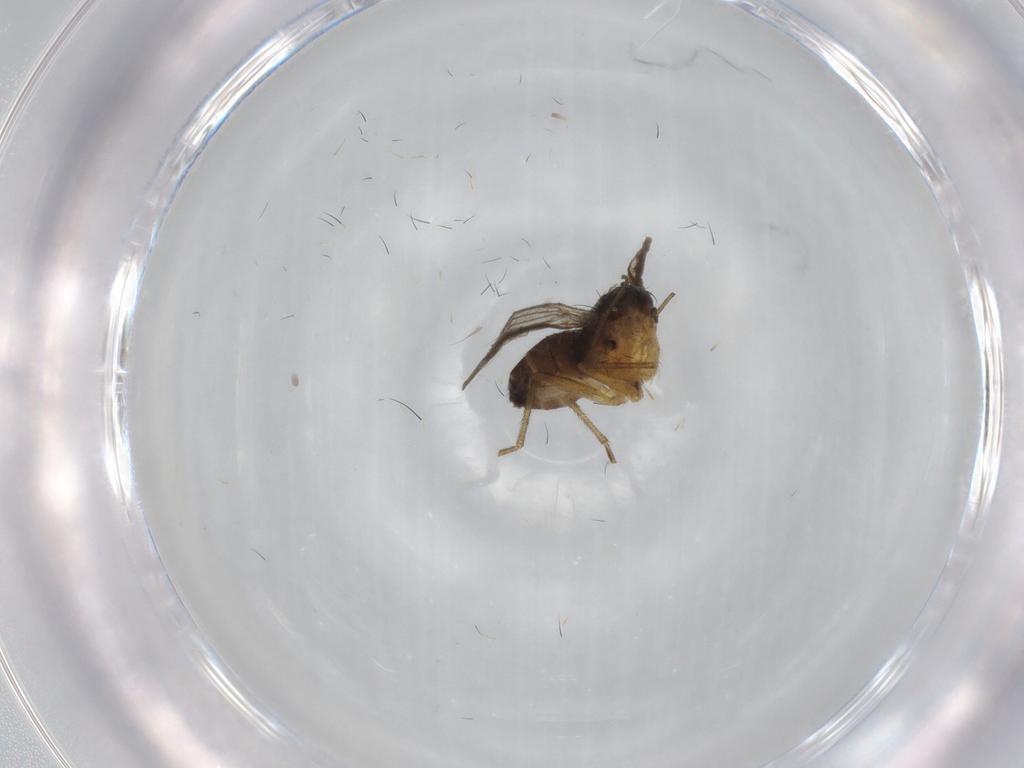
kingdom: Animalia
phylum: Arthropoda
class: Insecta
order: Diptera
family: Dolichopodidae
